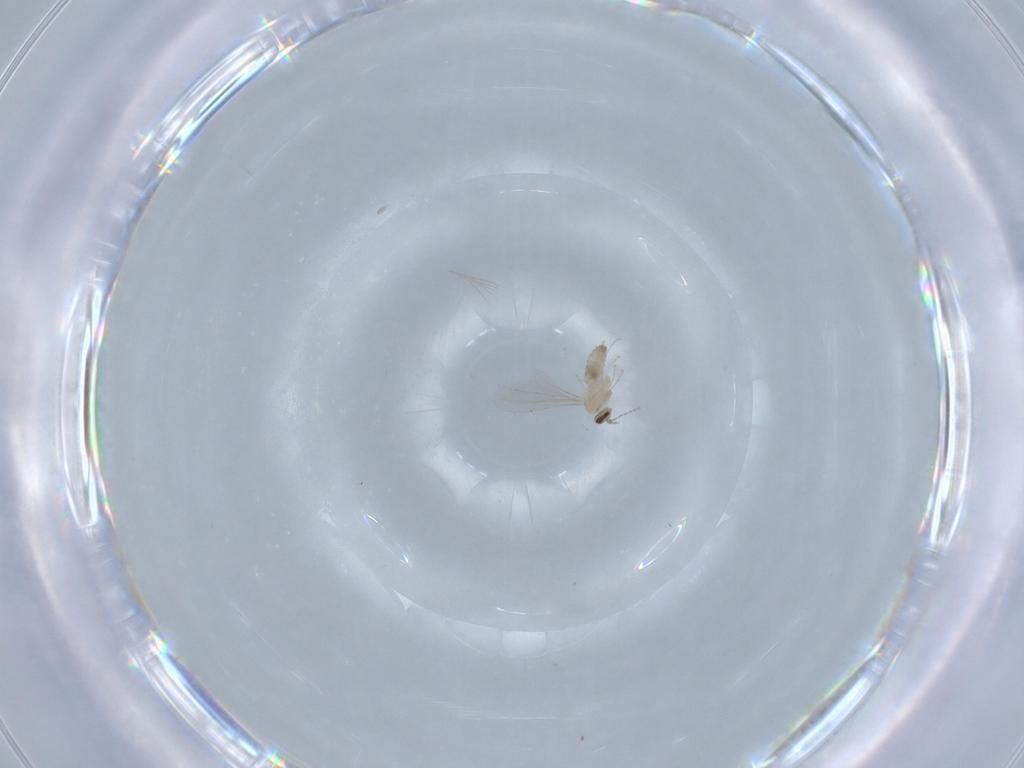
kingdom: Animalia
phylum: Arthropoda
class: Insecta
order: Diptera
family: Cecidomyiidae
